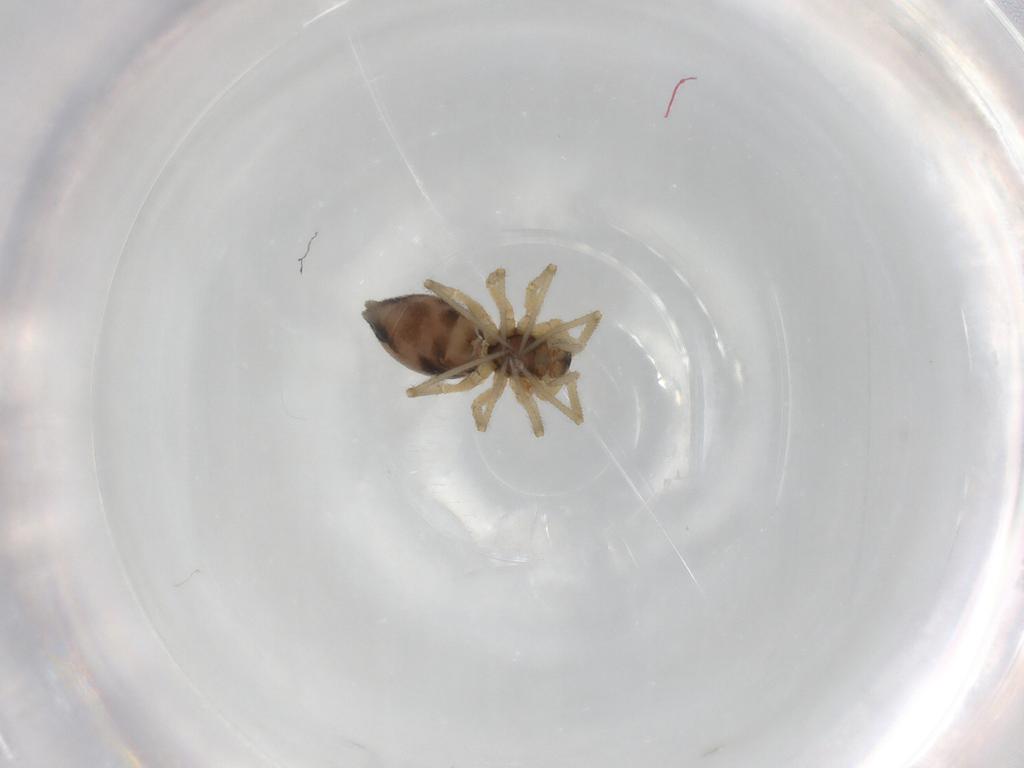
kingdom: Animalia
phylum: Arthropoda
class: Arachnida
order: Araneae
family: Linyphiidae
